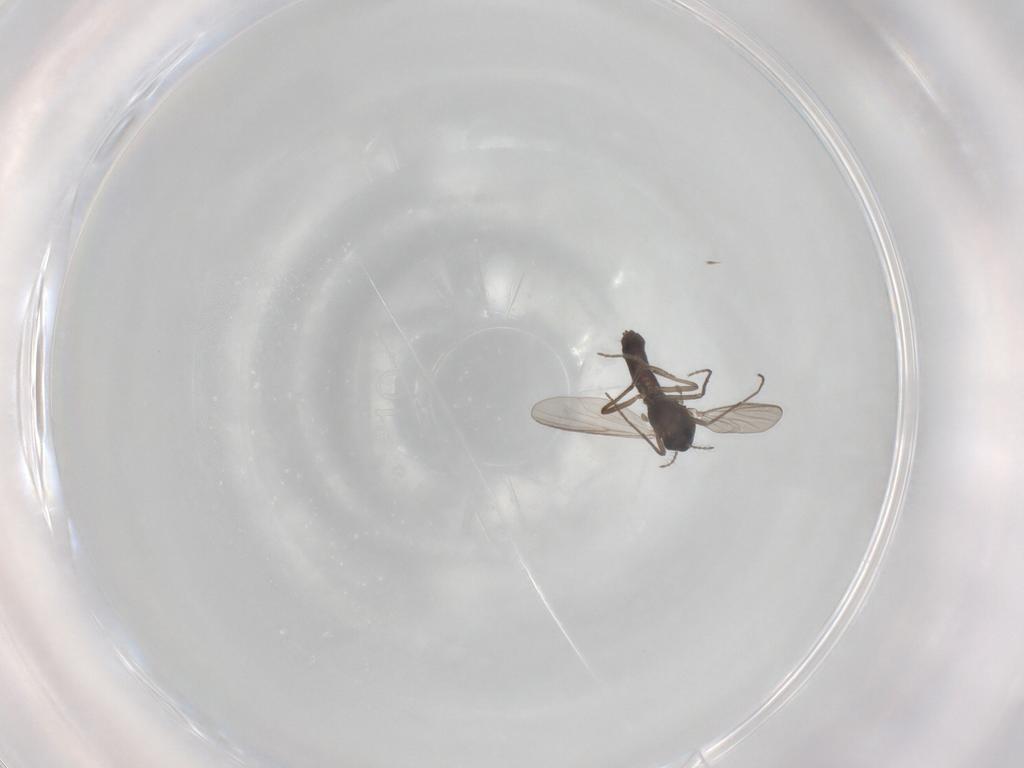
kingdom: Animalia
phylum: Arthropoda
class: Insecta
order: Diptera
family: Chironomidae
